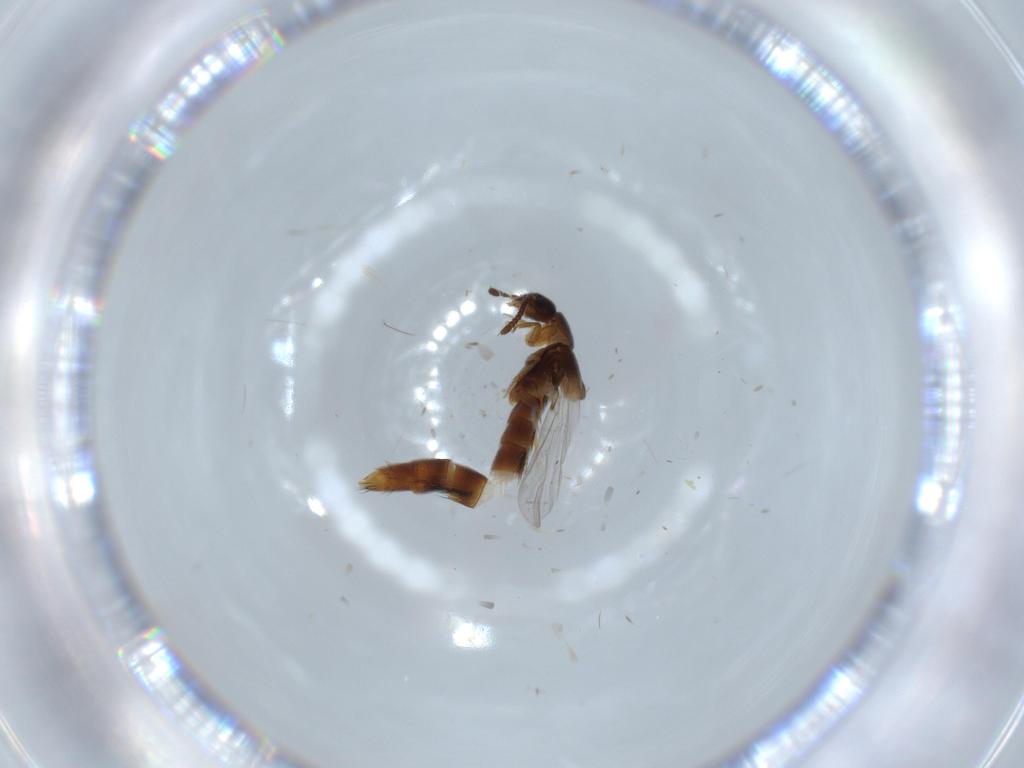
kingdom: Animalia
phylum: Arthropoda
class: Insecta
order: Coleoptera
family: Staphylinidae
